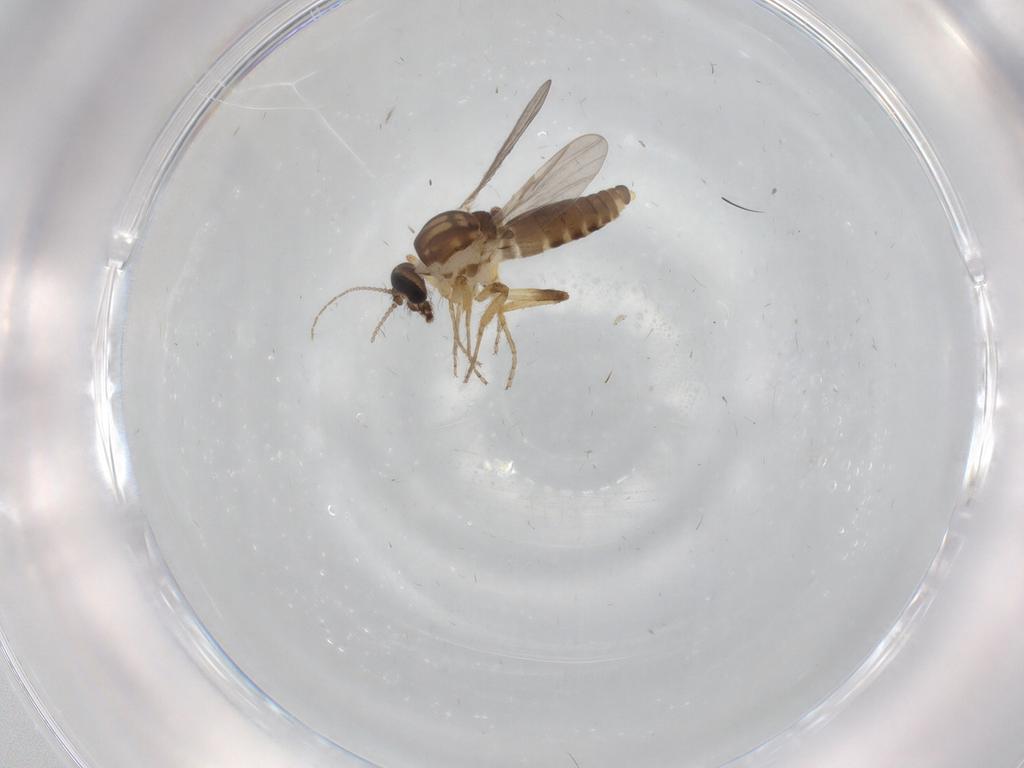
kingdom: Animalia
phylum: Arthropoda
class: Insecta
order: Diptera
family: Ceratopogonidae
